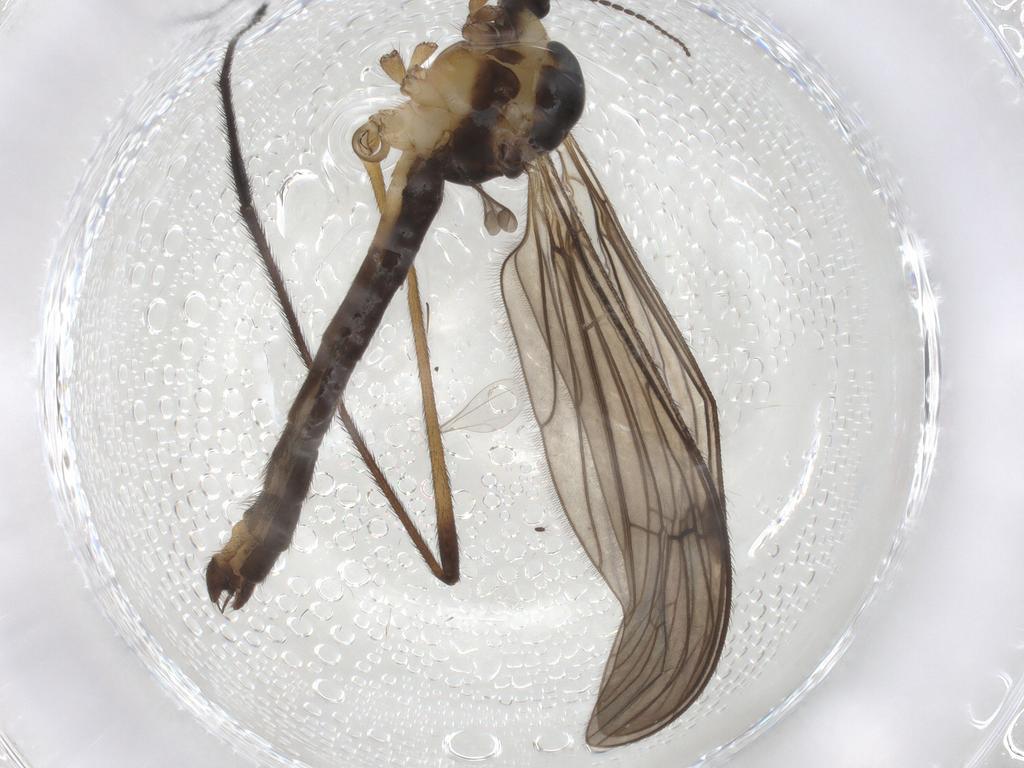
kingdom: Animalia
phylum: Arthropoda
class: Insecta
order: Diptera
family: Limoniidae
